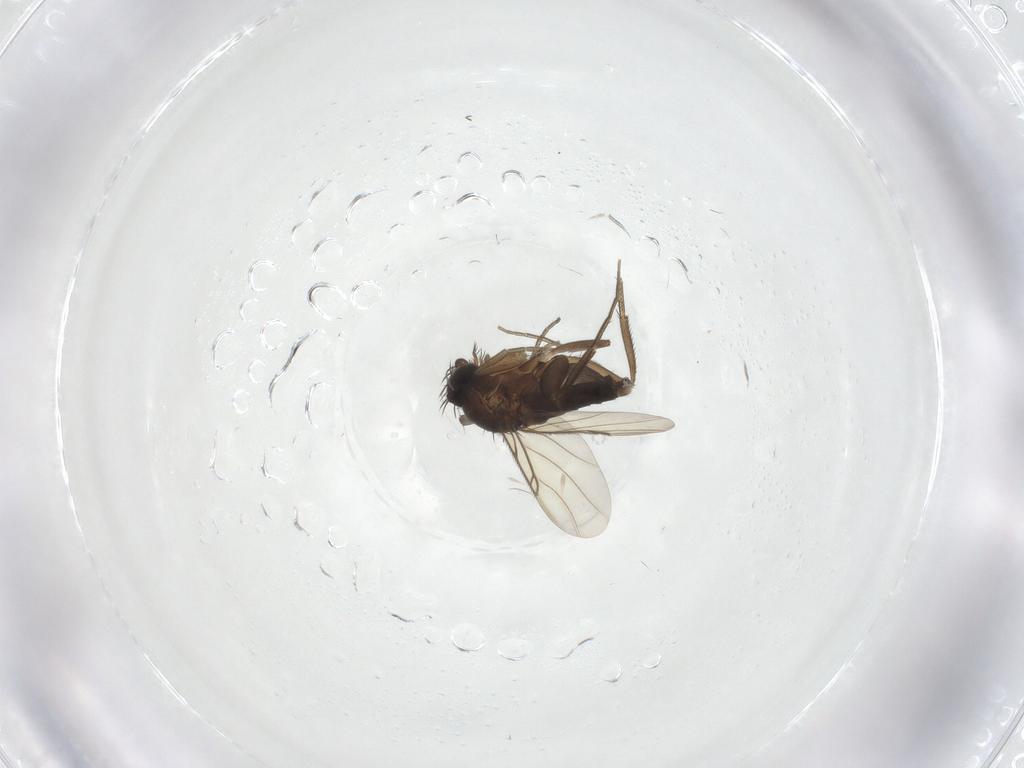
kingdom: Animalia
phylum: Arthropoda
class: Insecta
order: Diptera
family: Phoridae
